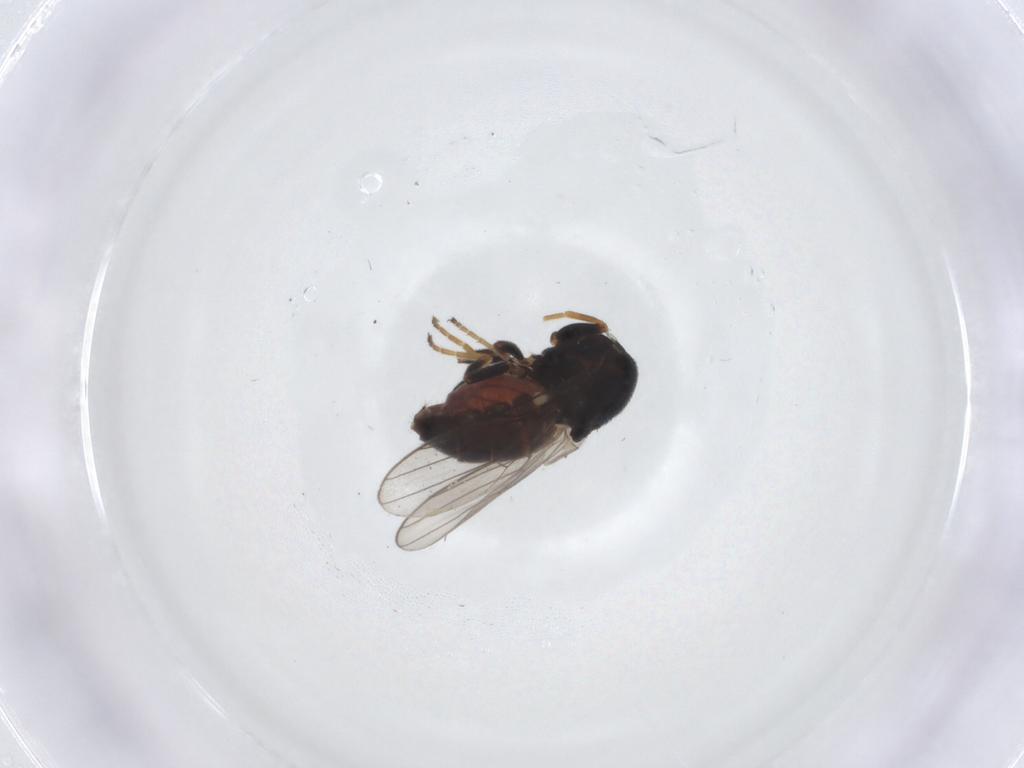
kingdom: Animalia
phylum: Arthropoda
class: Insecta
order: Diptera
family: Chloropidae
